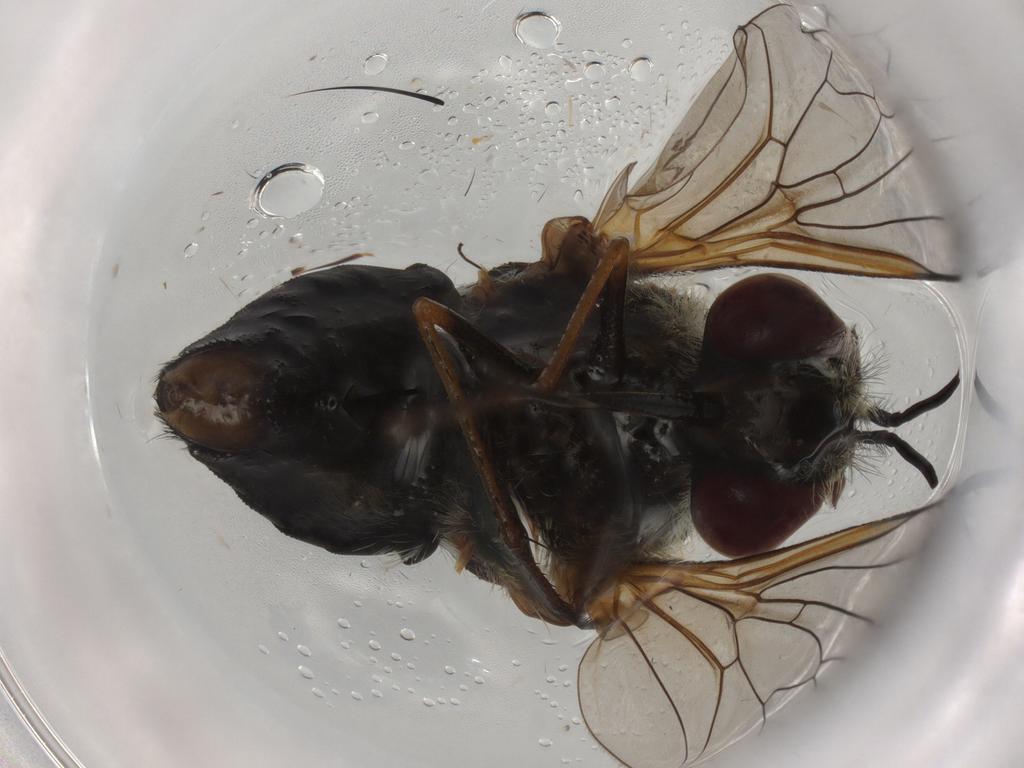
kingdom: Animalia
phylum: Arthropoda
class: Insecta
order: Diptera
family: Bombyliidae
